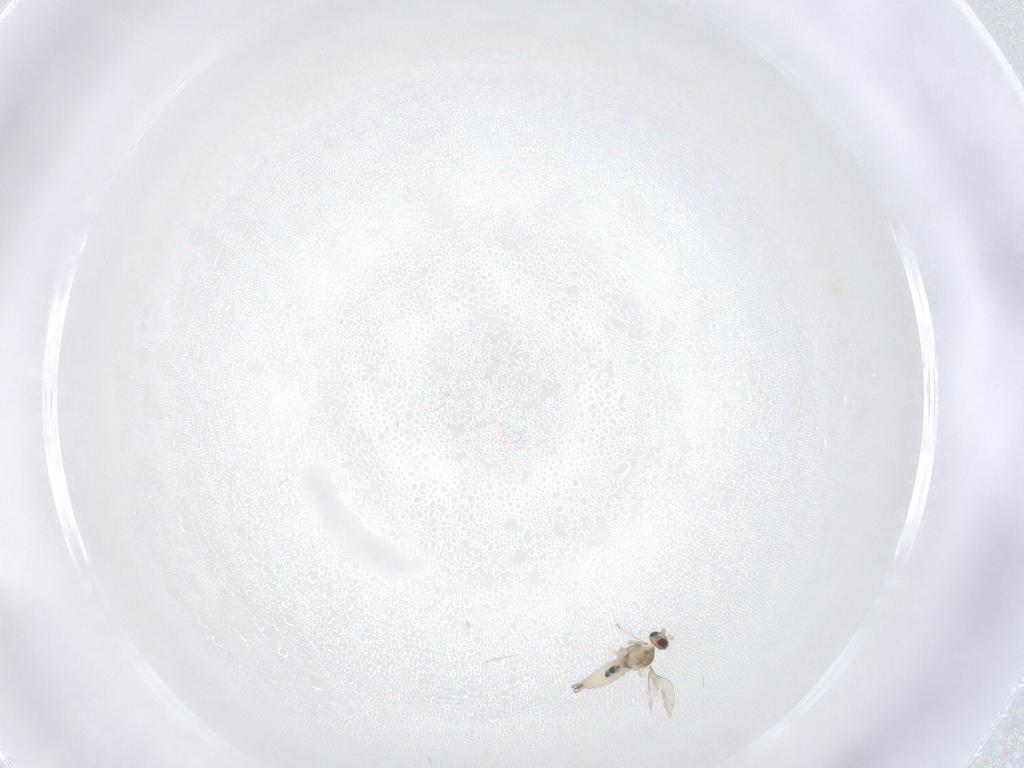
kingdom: Animalia
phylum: Arthropoda
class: Insecta
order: Diptera
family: Cecidomyiidae
